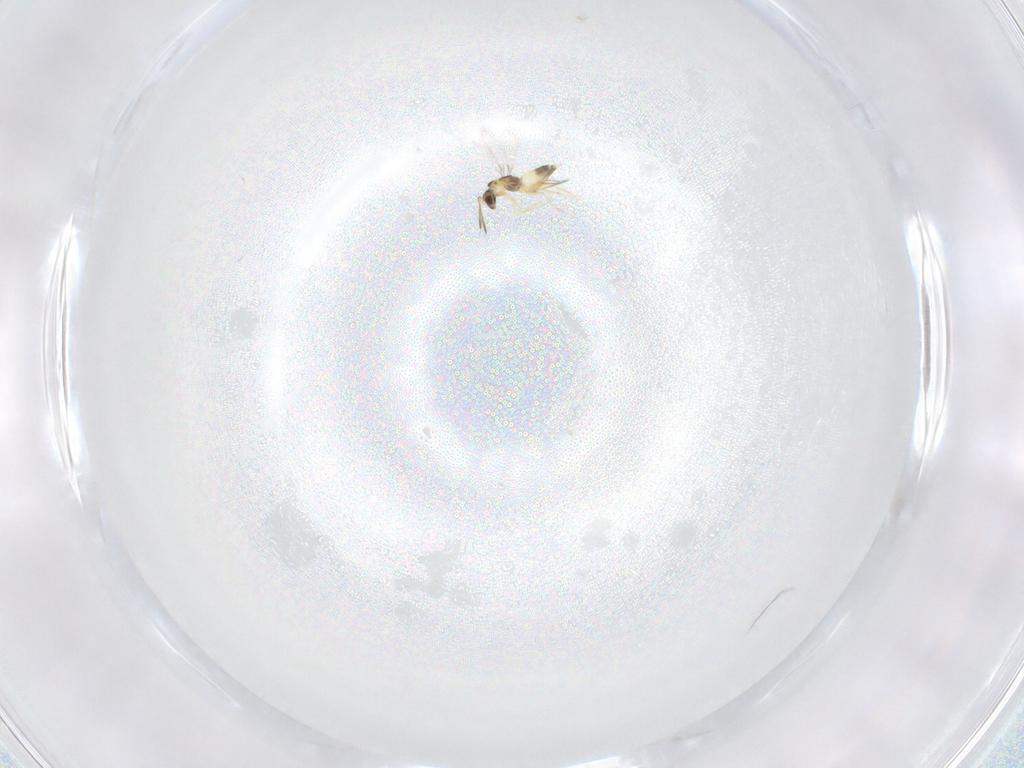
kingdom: Animalia
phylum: Arthropoda
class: Insecta
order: Hymenoptera
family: Mymaridae
